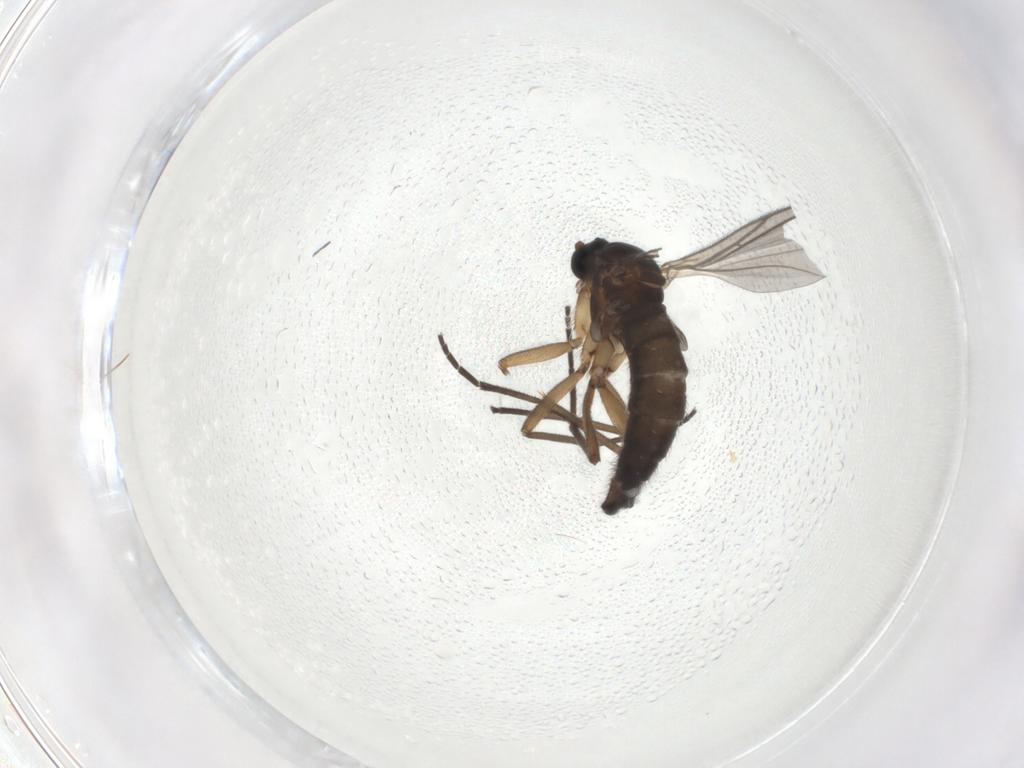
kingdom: Animalia
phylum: Arthropoda
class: Insecta
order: Diptera
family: Sciaridae
